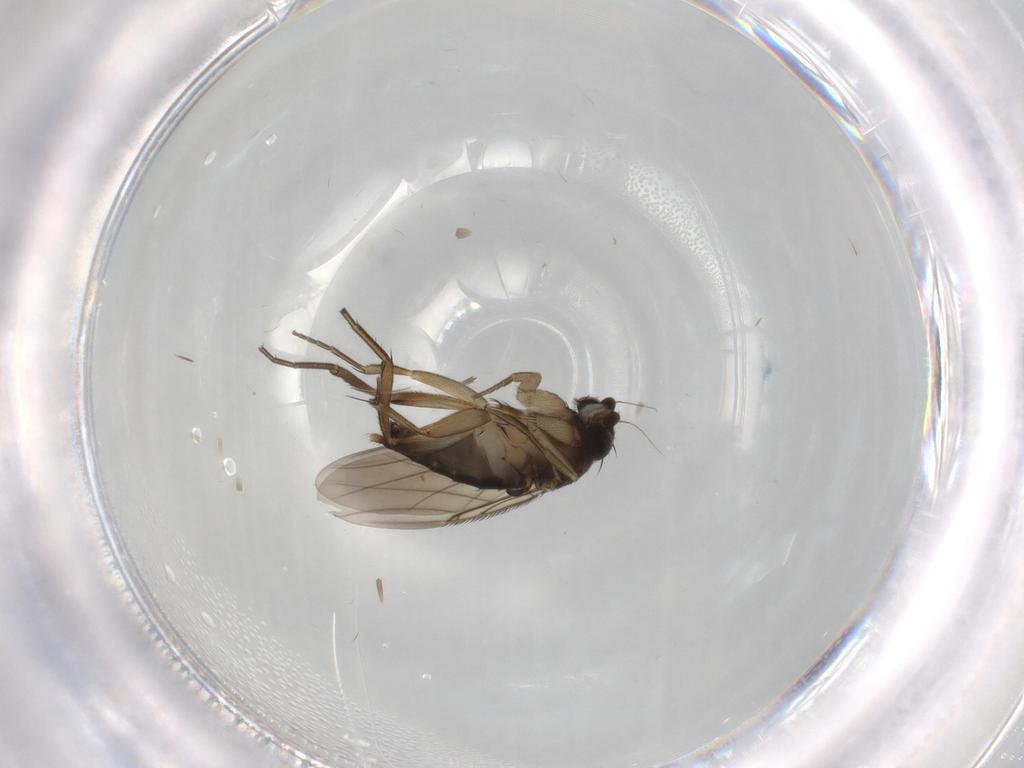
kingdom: Animalia
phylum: Arthropoda
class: Insecta
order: Diptera
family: Phoridae
